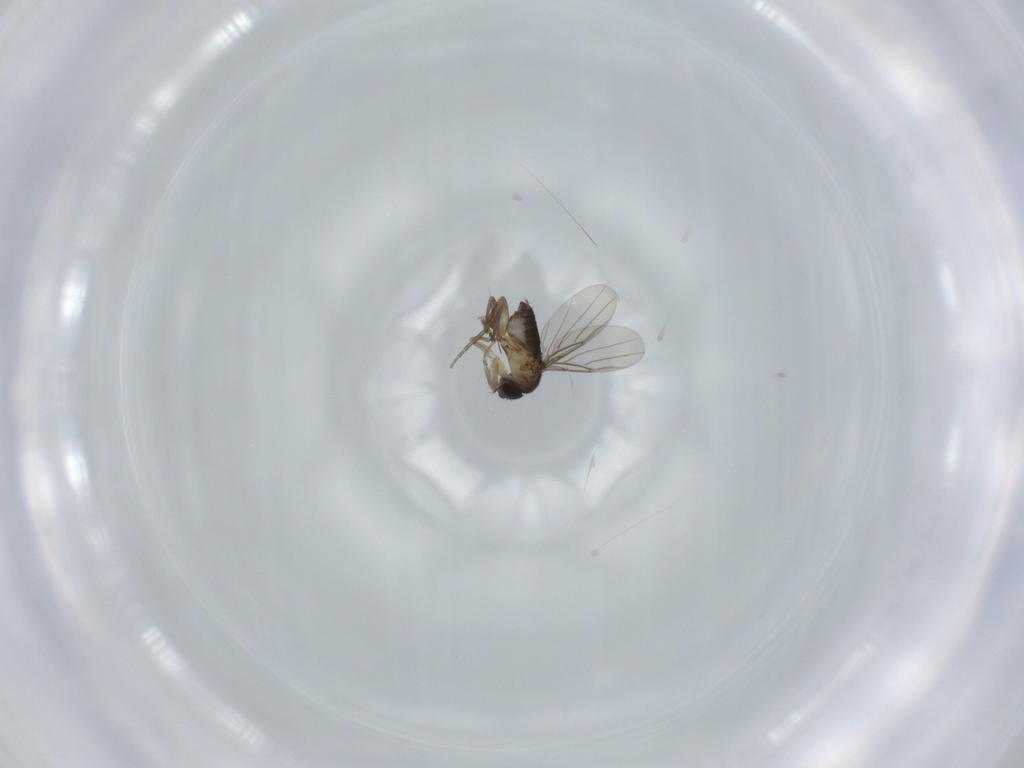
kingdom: Animalia
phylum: Arthropoda
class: Insecta
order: Diptera
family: Phoridae
